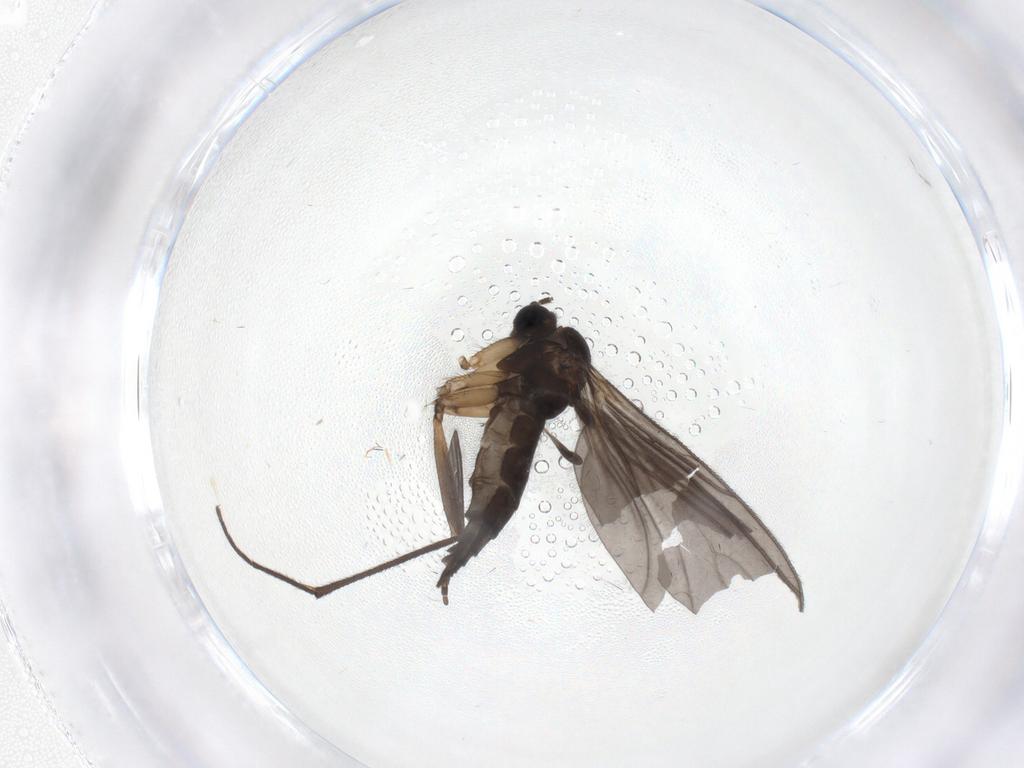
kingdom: Animalia
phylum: Arthropoda
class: Insecta
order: Diptera
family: Sciaridae
